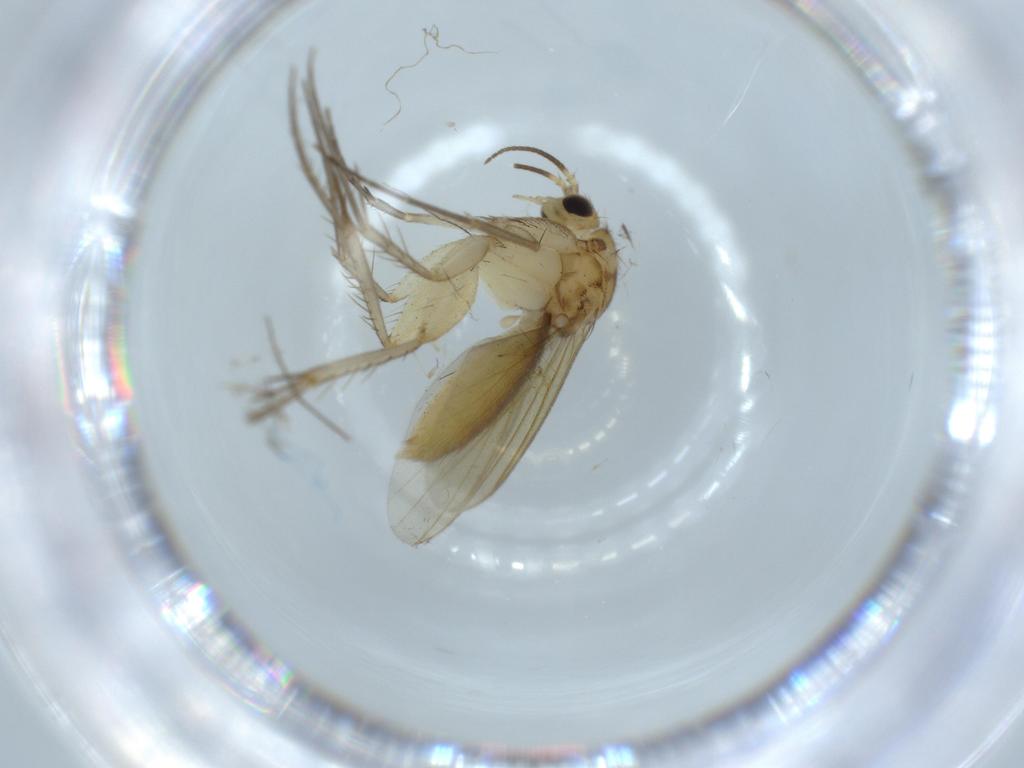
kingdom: Animalia
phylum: Arthropoda
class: Insecta
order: Diptera
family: Mycetophilidae
